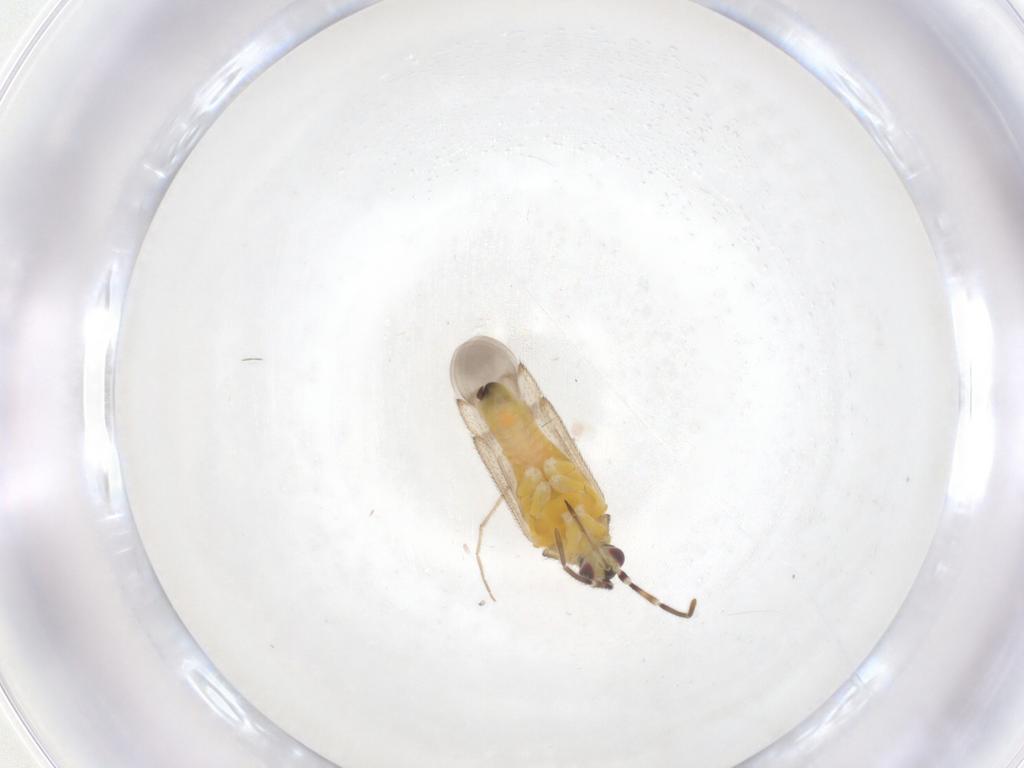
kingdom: Animalia
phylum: Arthropoda
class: Insecta
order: Hemiptera
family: Miridae
